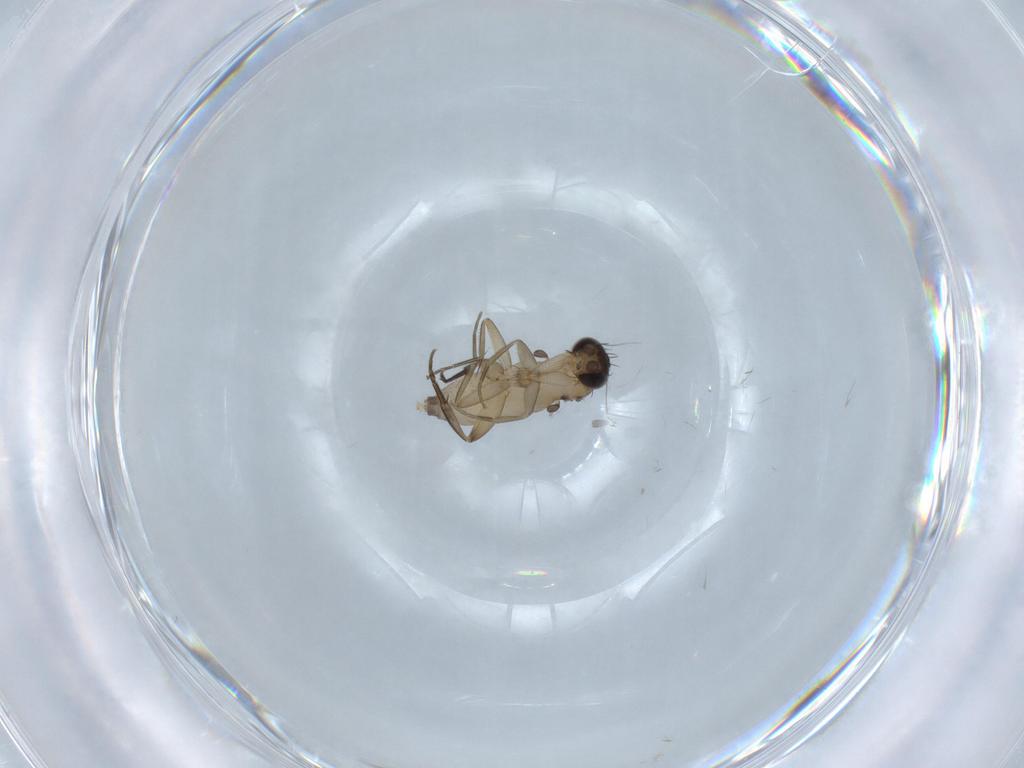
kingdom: Animalia
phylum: Arthropoda
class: Insecta
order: Diptera
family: Phoridae
